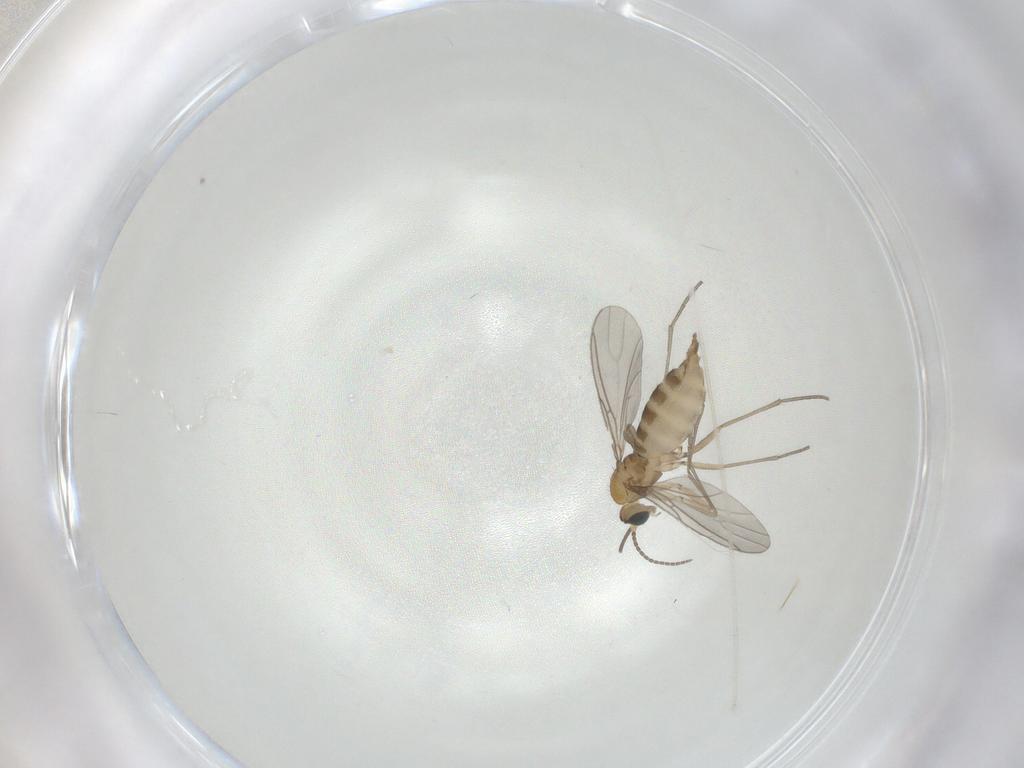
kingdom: Animalia
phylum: Arthropoda
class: Insecta
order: Diptera
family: Sciaridae
